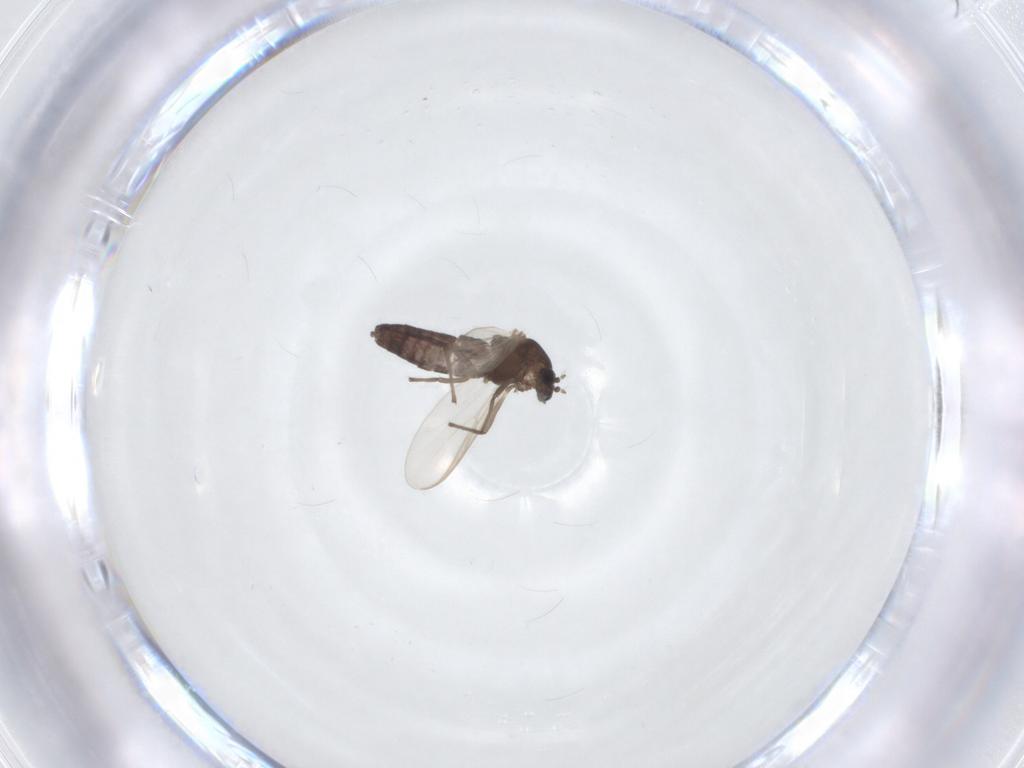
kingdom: Animalia
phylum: Arthropoda
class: Insecta
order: Diptera
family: Chironomidae
